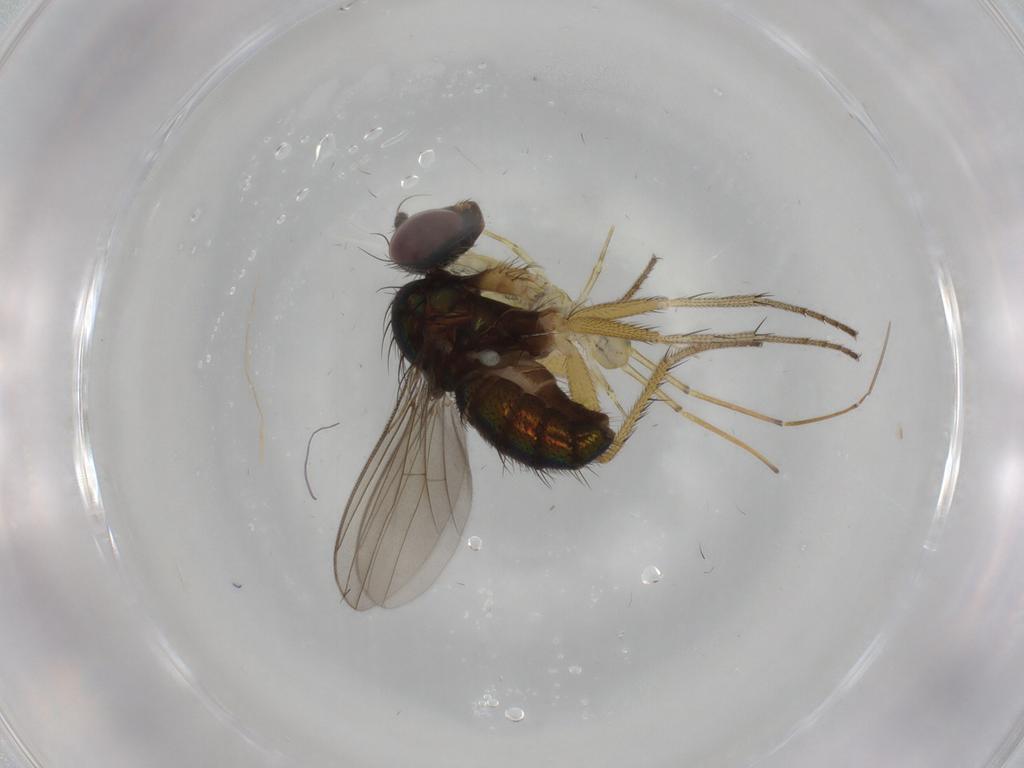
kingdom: Animalia
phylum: Arthropoda
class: Insecta
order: Diptera
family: Dolichopodidae
